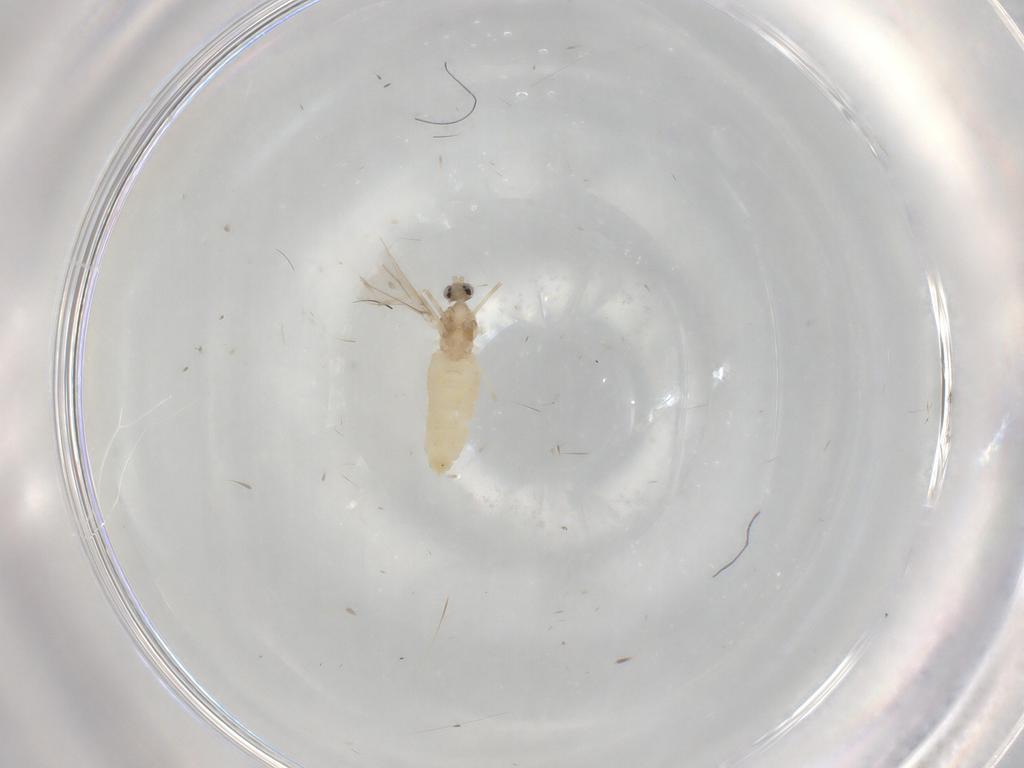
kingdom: Animalia
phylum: Arthropoda
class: Insecta
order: Diptera
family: Cecidomyiidae
